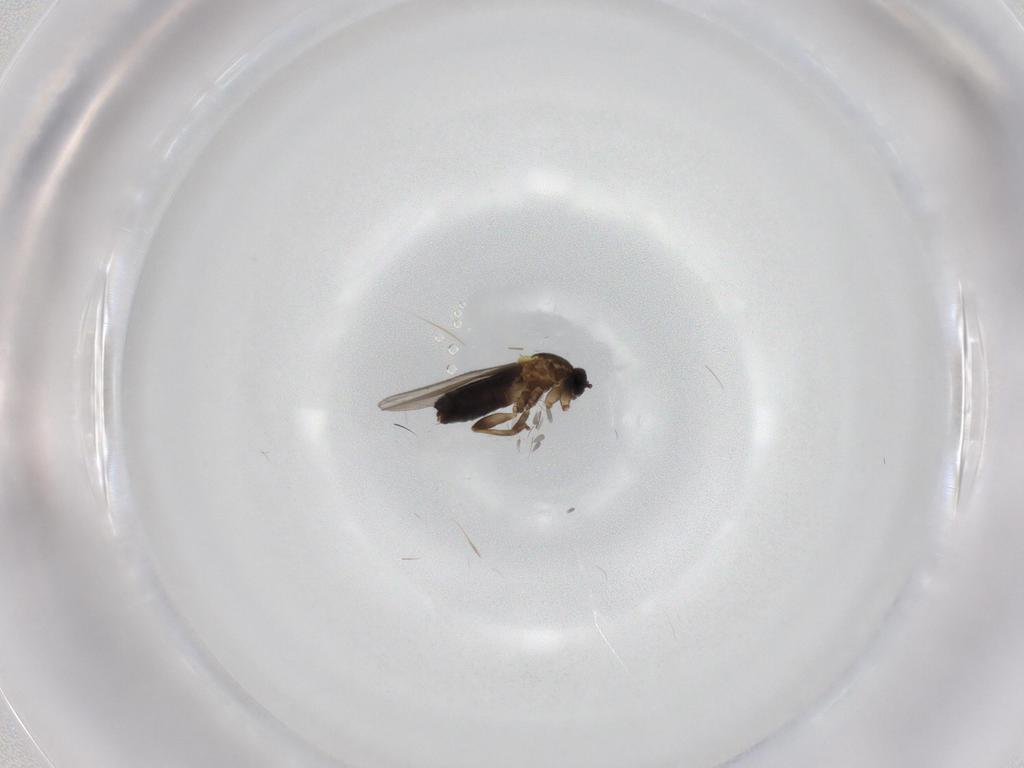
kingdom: Animalia
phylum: Arthropoda
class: Insecta
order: Diptera
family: Scatopsidae
